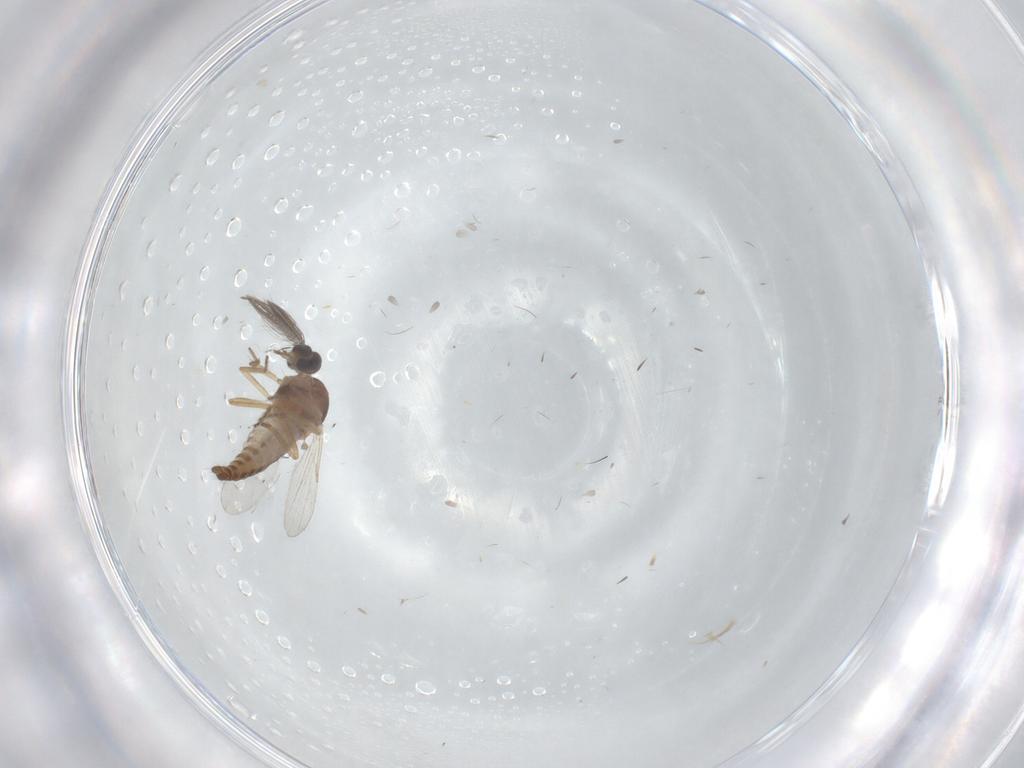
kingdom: Animalia
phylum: Arthropoda
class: Insecta
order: Diptera
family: Ceratopogonidae
